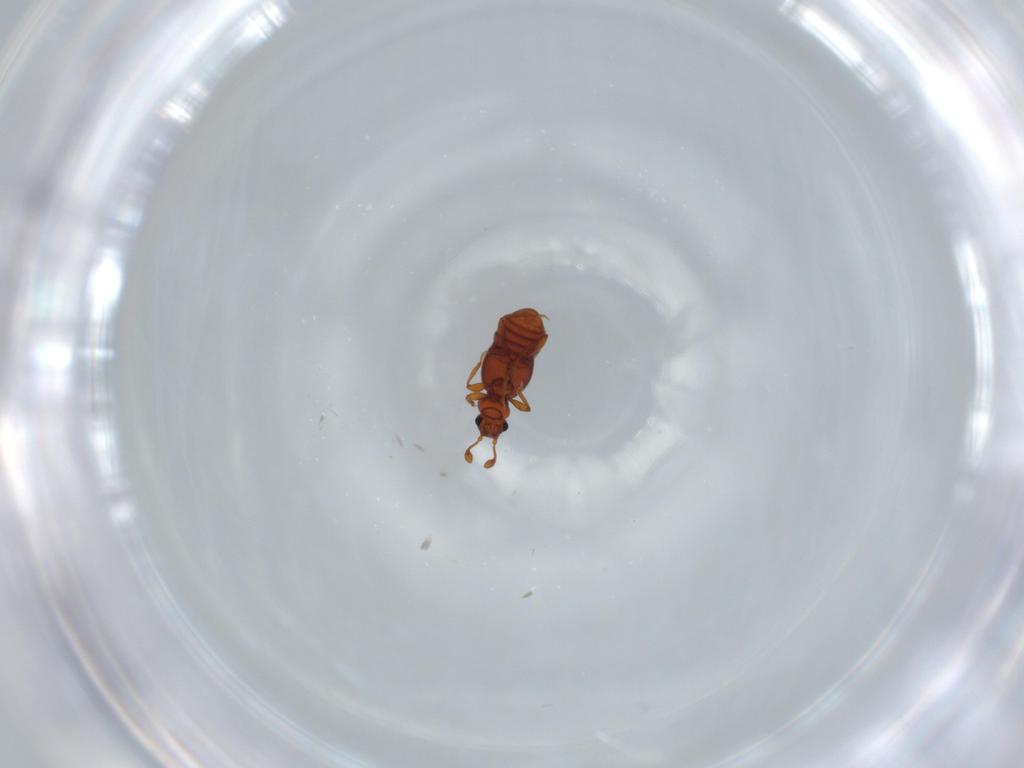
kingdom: Animalia
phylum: Arthropoda
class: Insecta
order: Coleoptera
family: Staphylinidae
